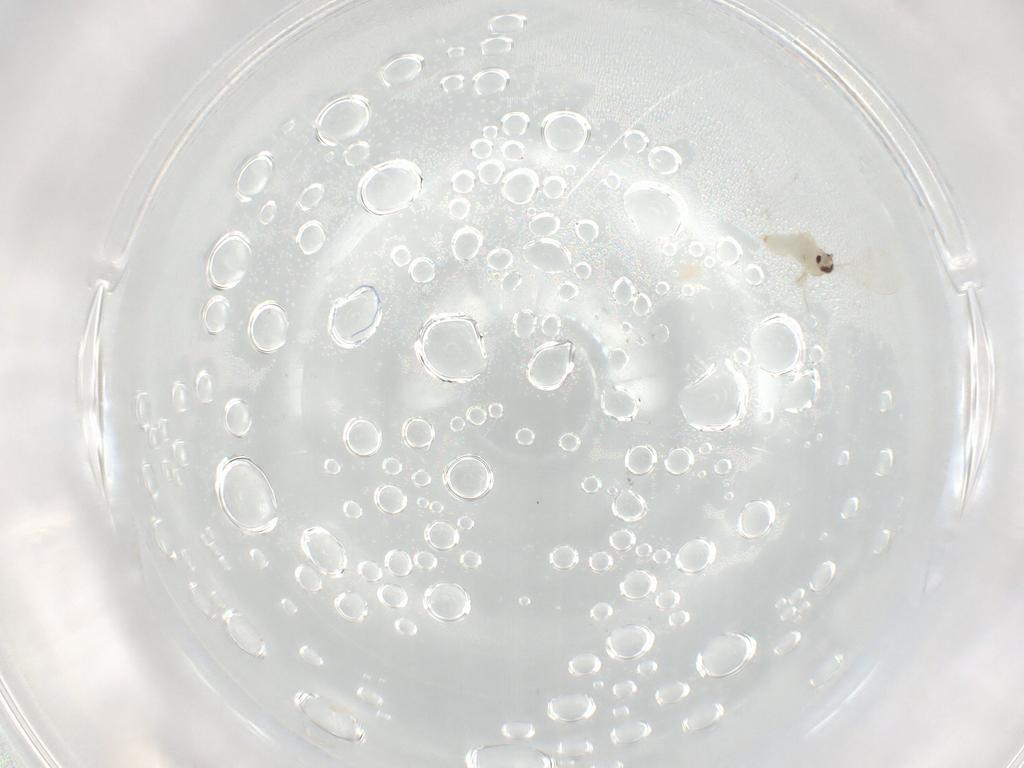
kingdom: Animalia
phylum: Arthropoda
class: Insecta
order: Diptera
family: Cecidomyiidae
